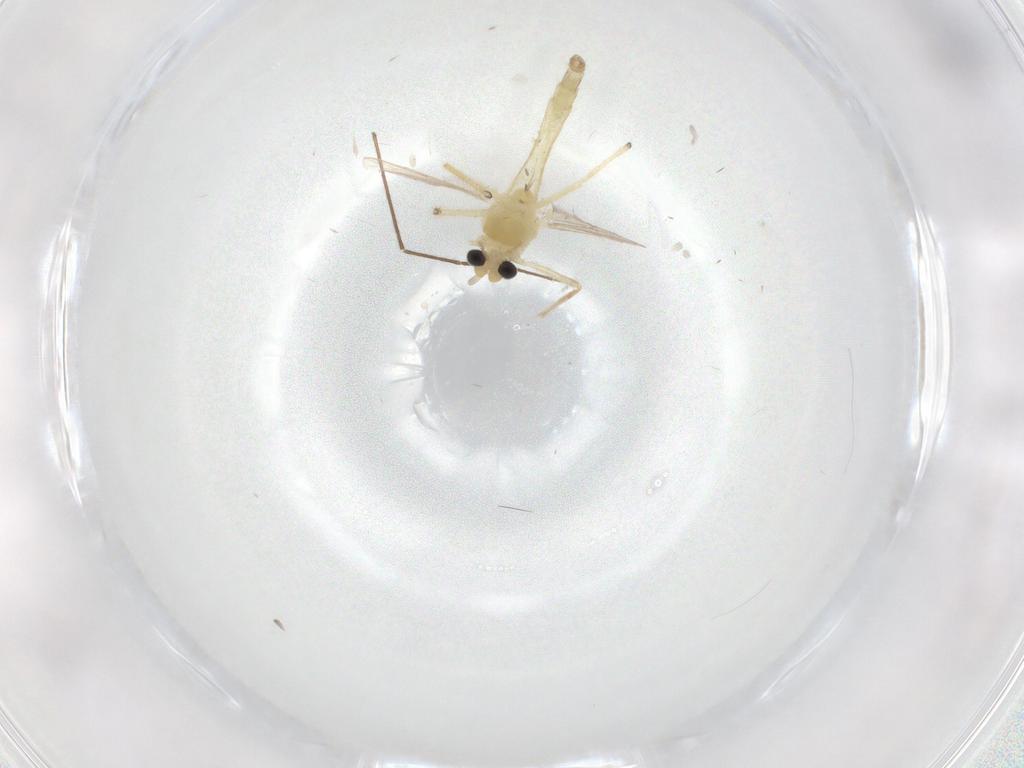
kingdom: Animalia
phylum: Arthropoda
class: Insecta
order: Diptera
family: Chironomidae
